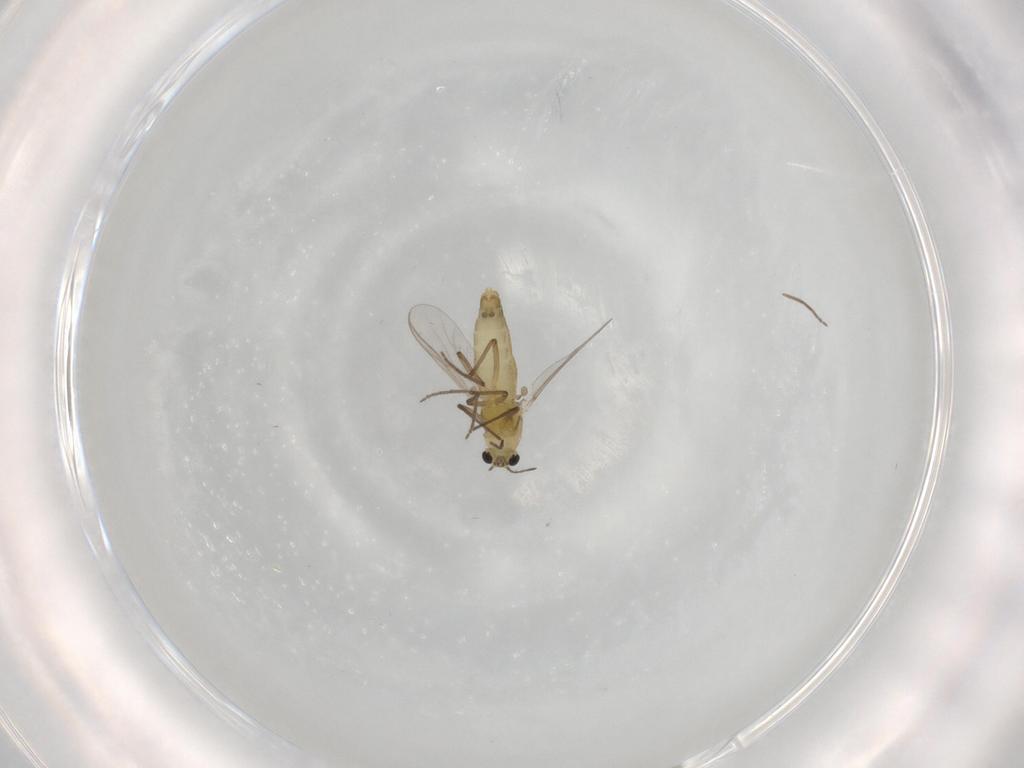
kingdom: Animalia
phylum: Arthropoda
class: Insecta
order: Diptera
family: Chironomidae
